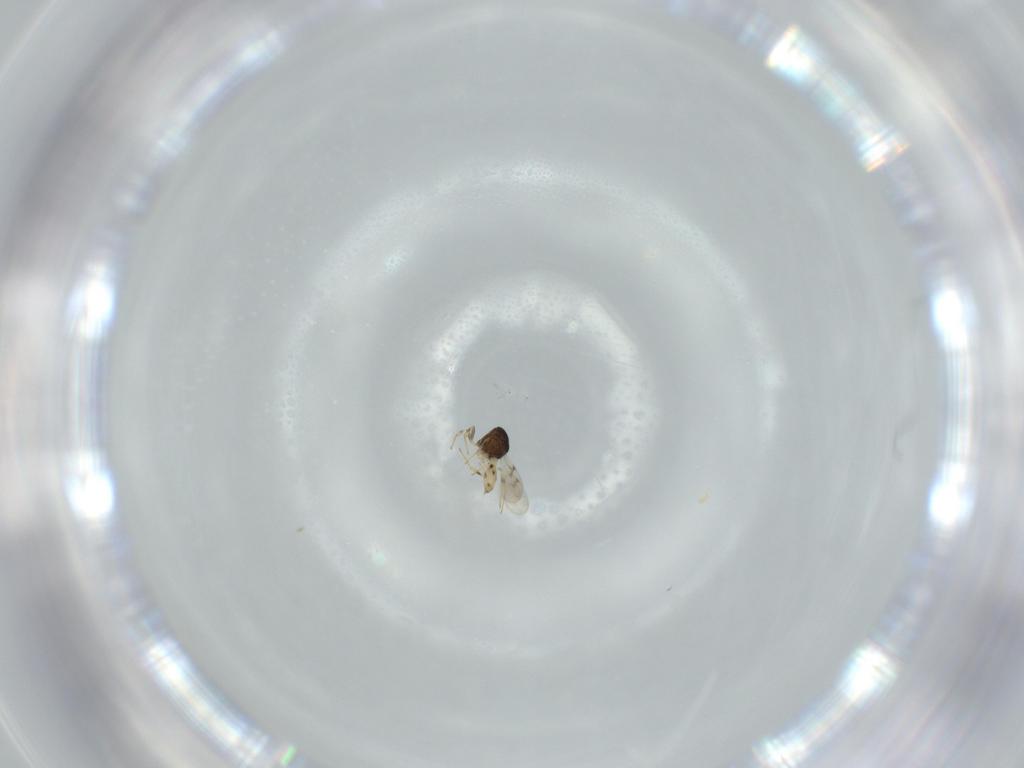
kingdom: Animalia
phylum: Arthropoda
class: Insecta
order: Hymenoptera
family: Scelionidae
